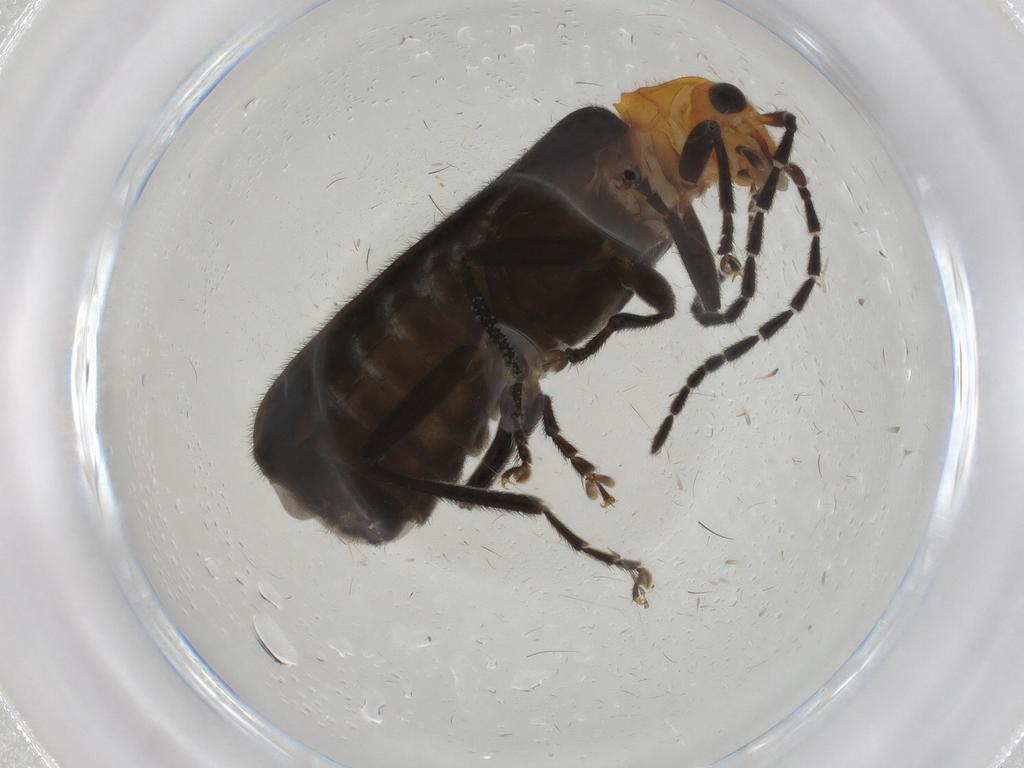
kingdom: Animalia
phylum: Arthropoda
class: Insecta
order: Coleoptera
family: Cantharidae
